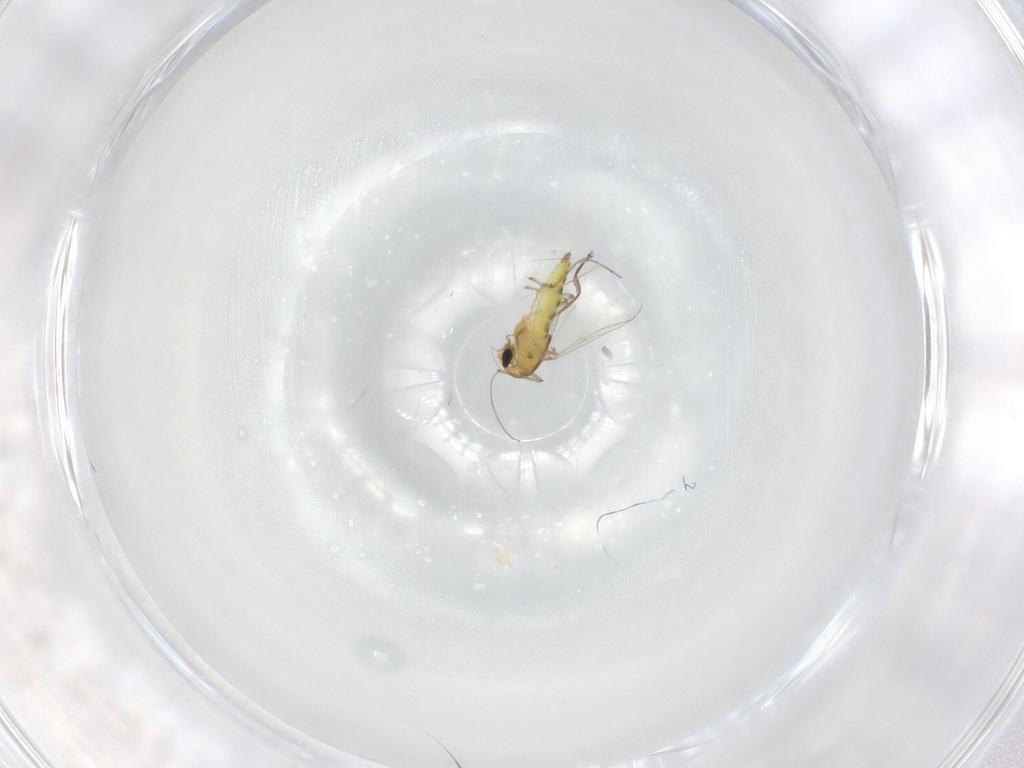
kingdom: Animalia
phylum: Arthropoda
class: Insecta
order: Diptera
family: Chironomidae
